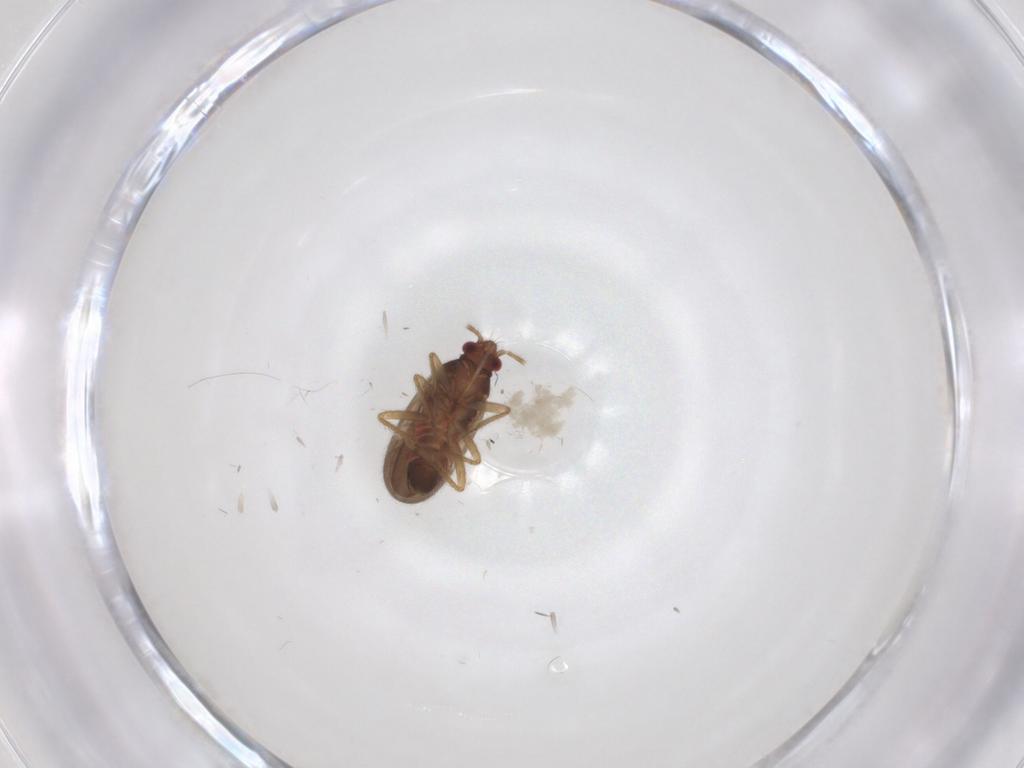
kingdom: Animalia
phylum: Arthropoda
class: Insecta
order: Hemiptera
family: Ceratocombidae
